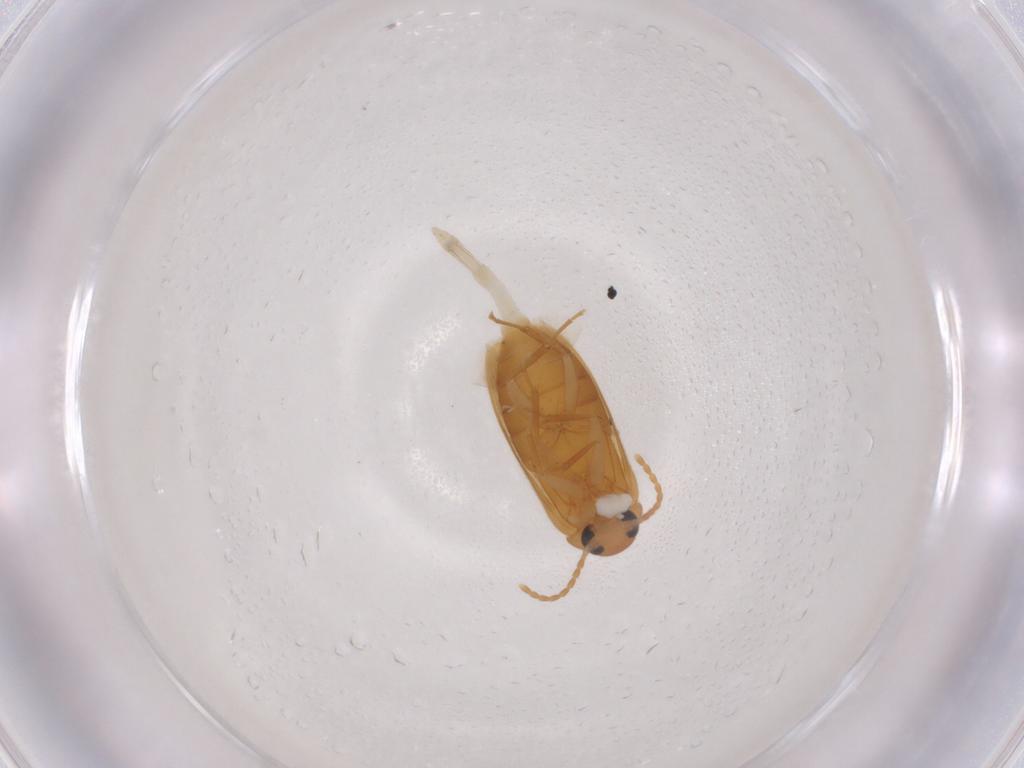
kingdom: Animalia
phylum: Arthropoda
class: Insecta
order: Coleoptera
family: Scraptiidae
